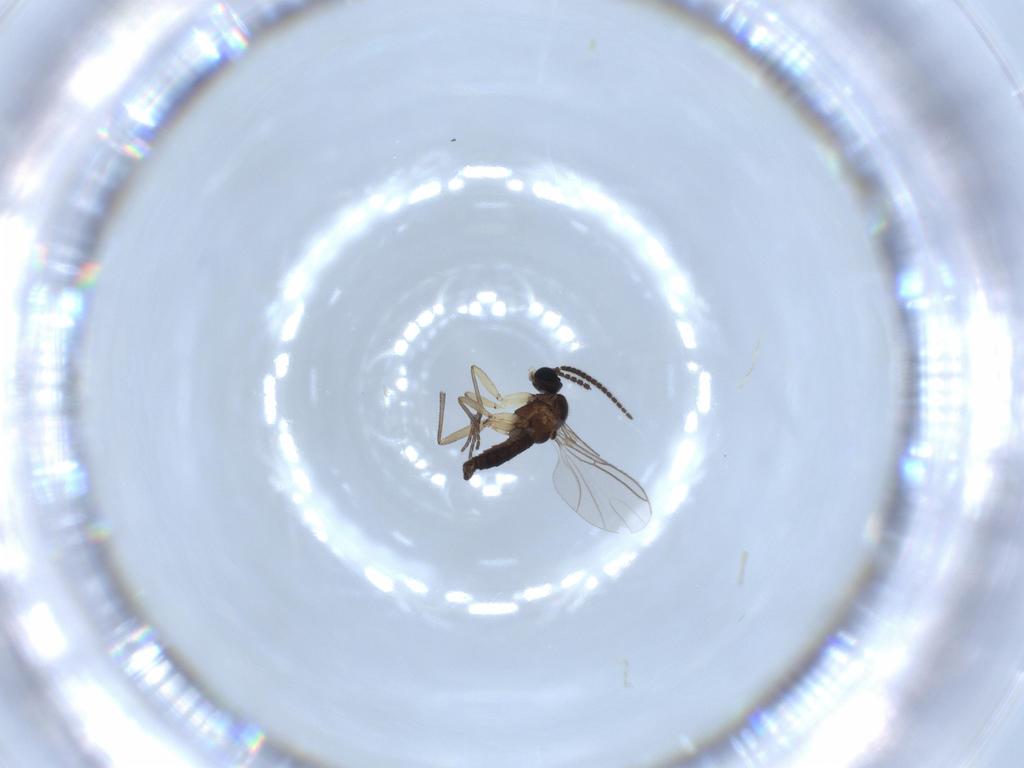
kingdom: Animalia
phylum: Arthropoda
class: Insecta
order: Diptera
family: Sciaridae
